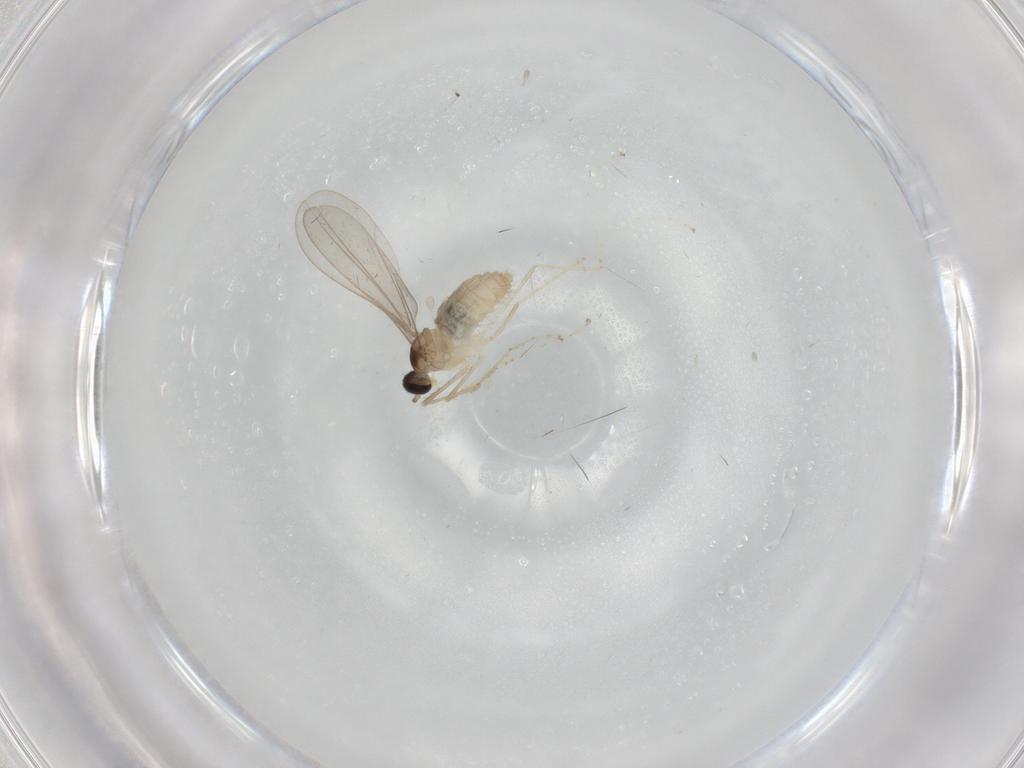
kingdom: Animalia
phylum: Arthropoda
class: Insecta
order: Diptera
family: Cecidomyiidae
